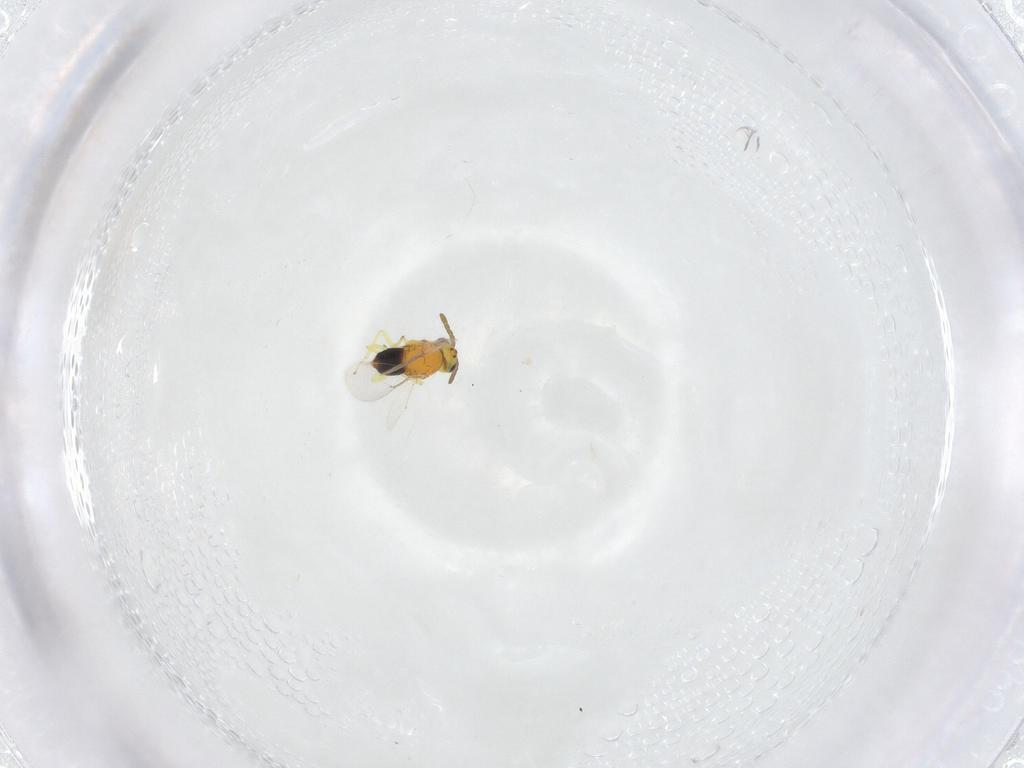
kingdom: Animalia
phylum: Arthropoda
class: Insecta
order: Hymenoptera
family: Aphelinidae
